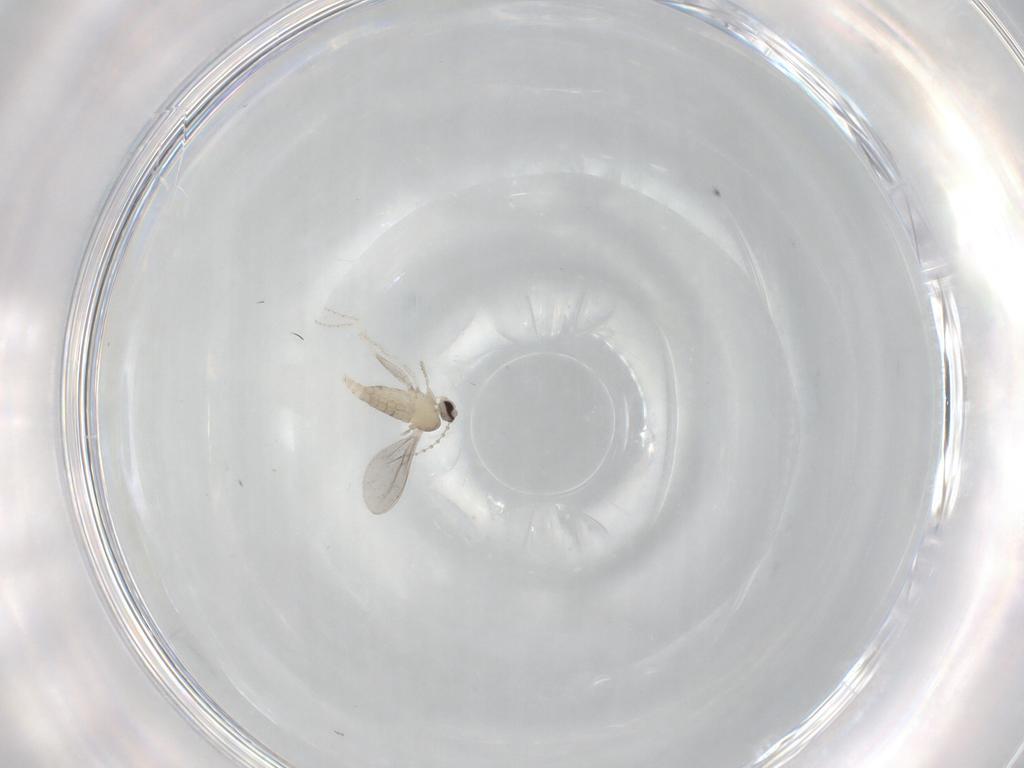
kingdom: Animalia
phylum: Arthropoda
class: Insecta
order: Diptera
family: Cecidomyiidae
